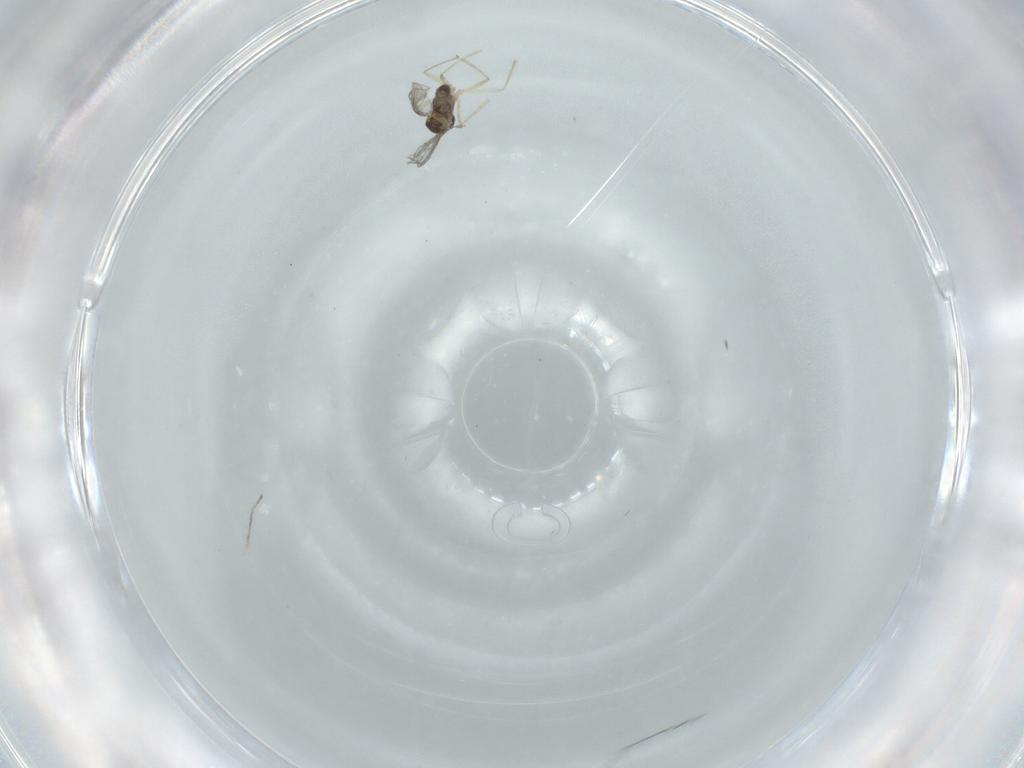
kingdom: Animalia
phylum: Arthropoda
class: Insecta
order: Diptera
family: Cecidomyiidae
